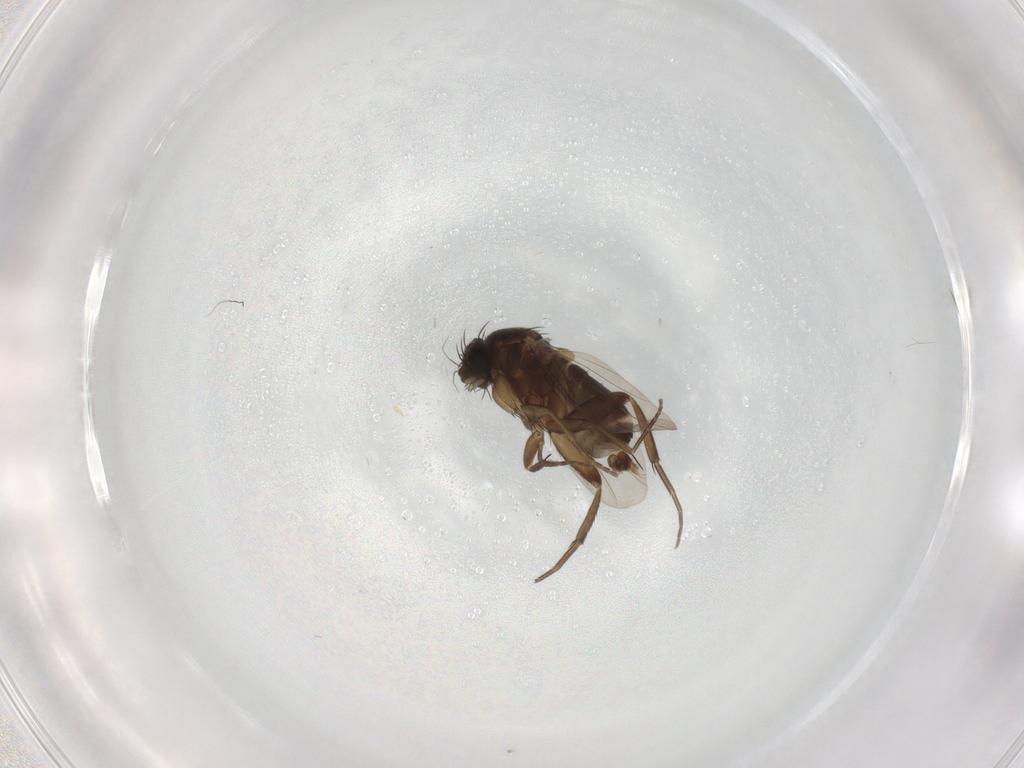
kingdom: Animalia
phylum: Arthropoda
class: Insecta
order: Diptera
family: Phoridae
